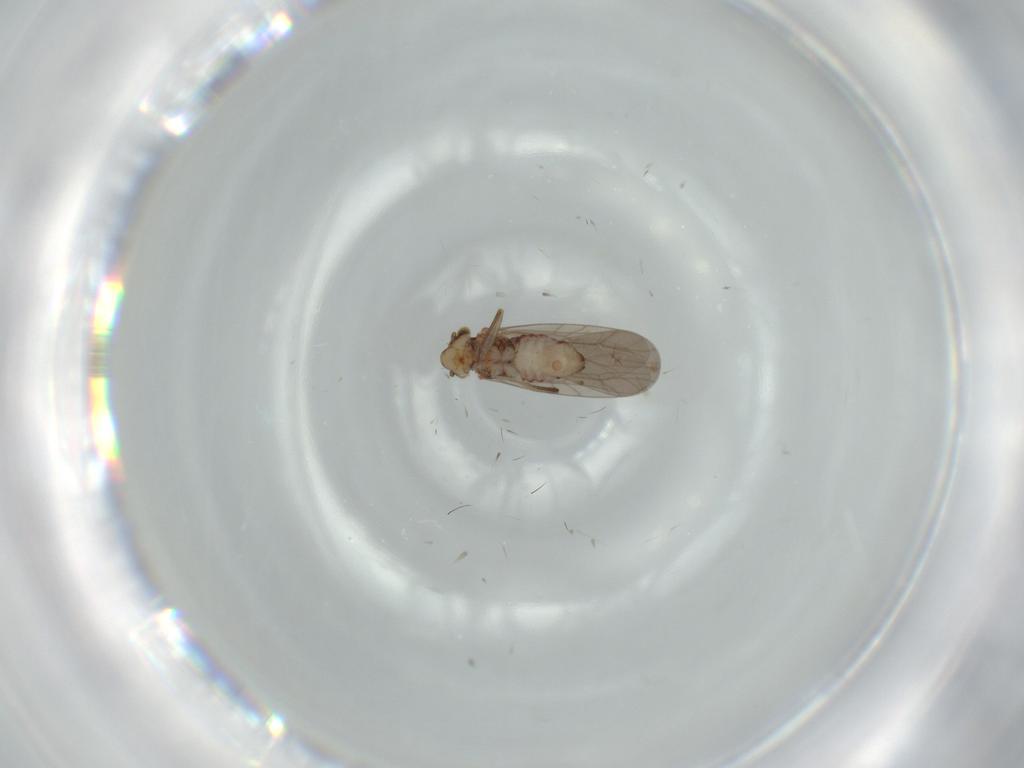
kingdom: Animalia
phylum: Arthropoda
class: Insecta
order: Psocodea
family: Lepidopsocidae
